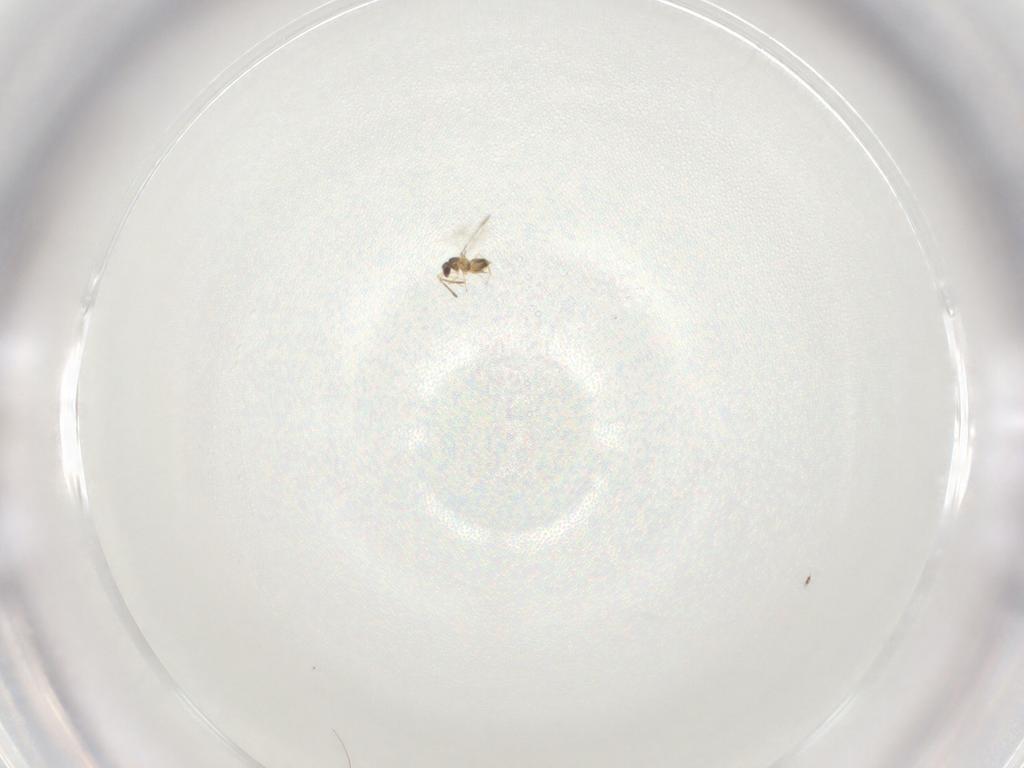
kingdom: Animalia
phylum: Arthropoda
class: Insecta
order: Hymenoptera
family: Mymaridae
